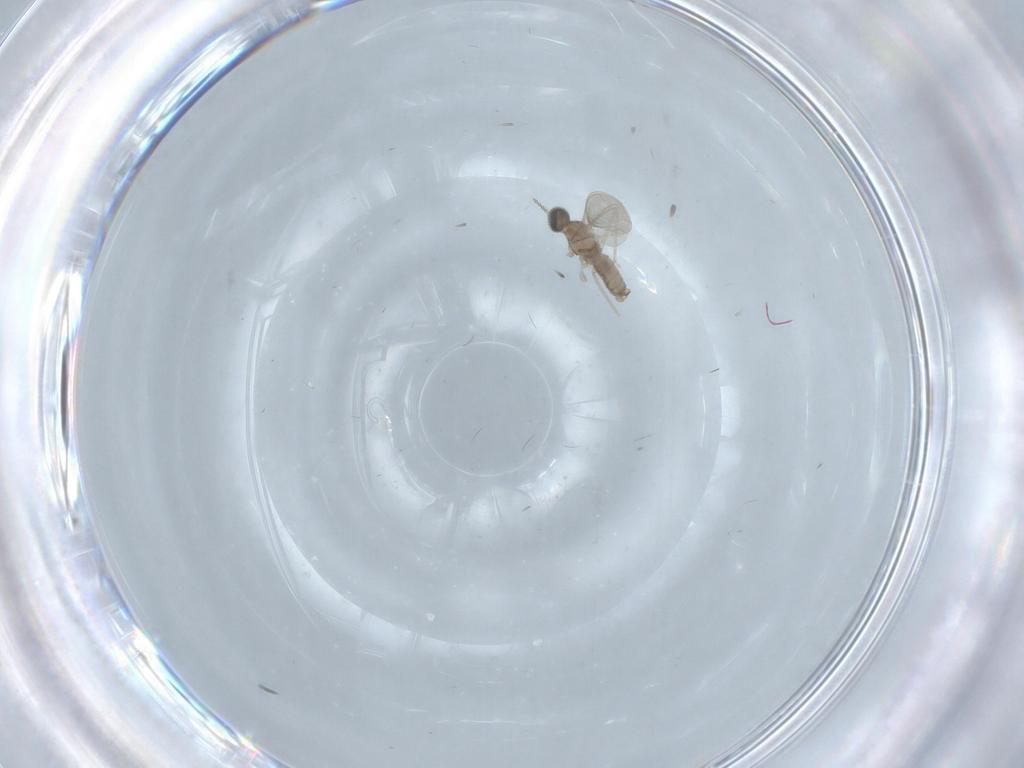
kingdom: Animalia
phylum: Arthropoda
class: Insecta
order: Diptera
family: Cecidomyiidae
